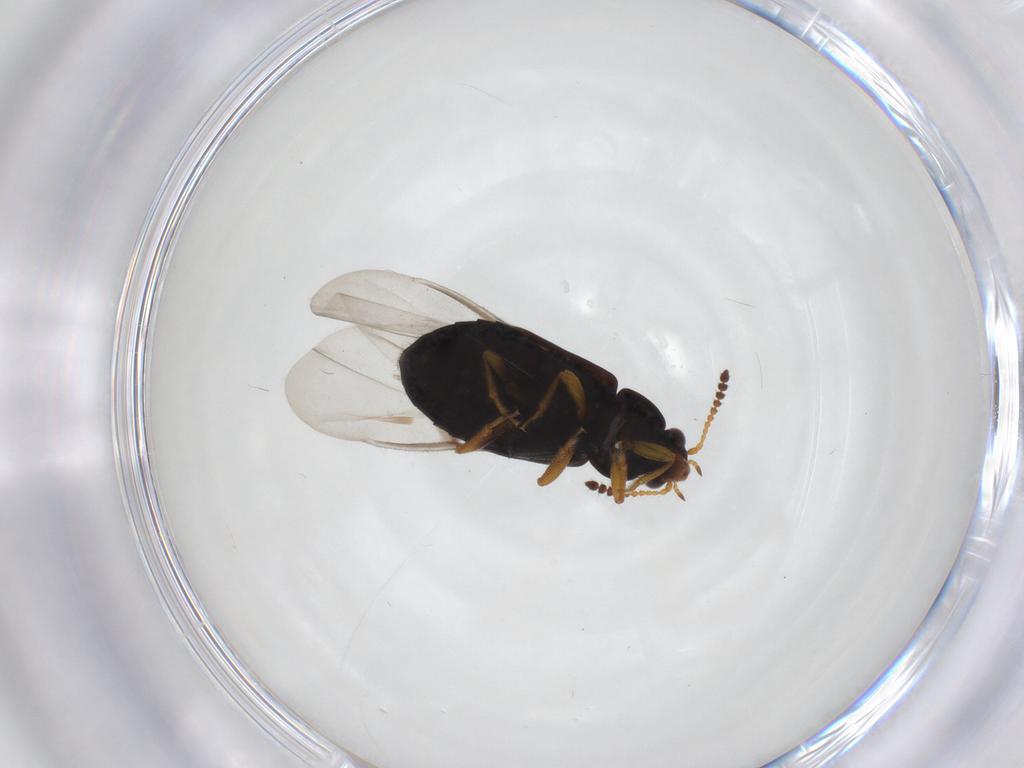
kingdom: Animalia
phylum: Arthropoda
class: Insecta
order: Coleoptera
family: Staphylinidae
